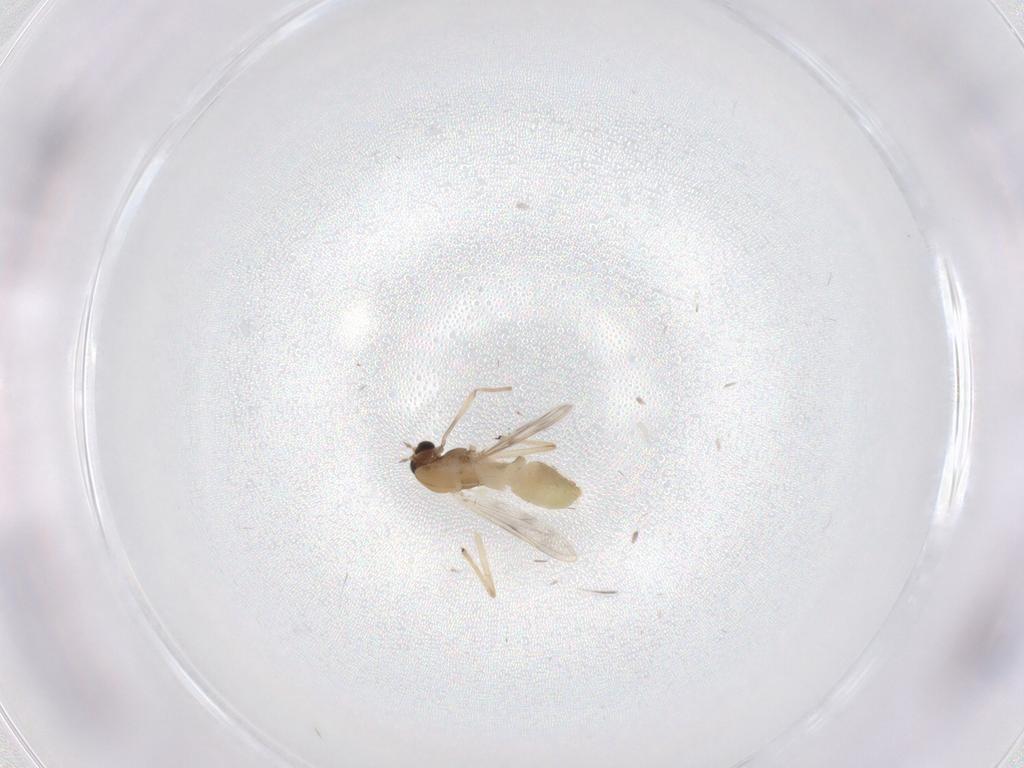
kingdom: Animalia
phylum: Arthropoda
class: Insecta
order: Diptera
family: Chironomidae
